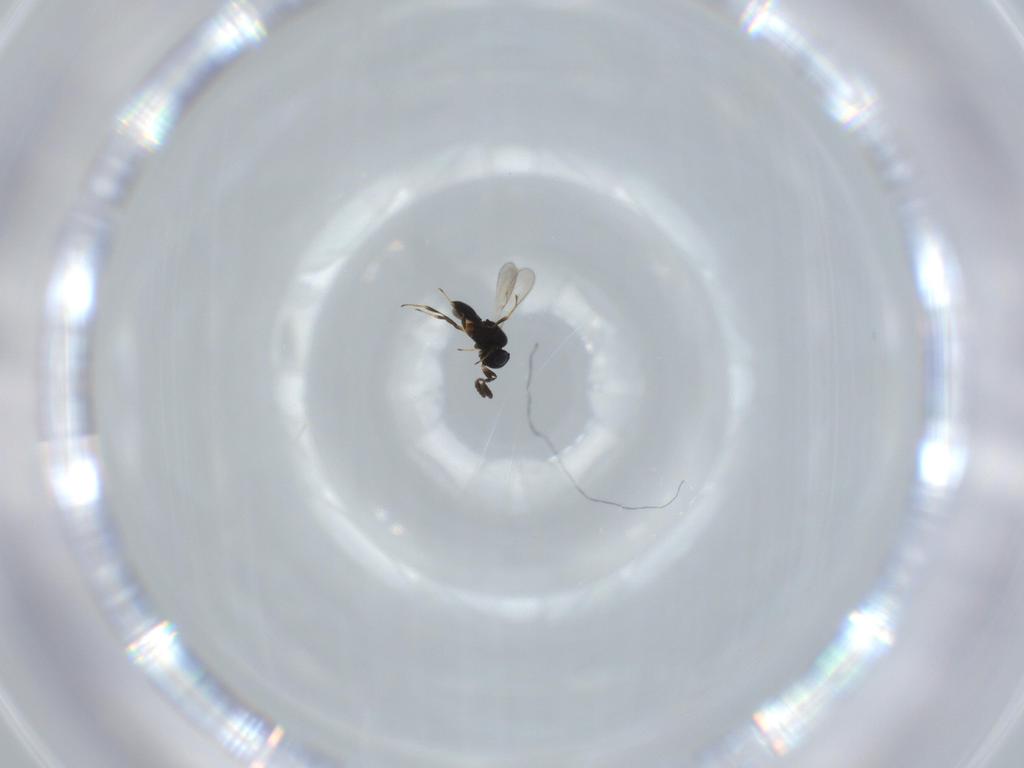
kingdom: Animalia
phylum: Arthropoda
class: Insecta
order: Hymenoptera
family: Scelionidae
